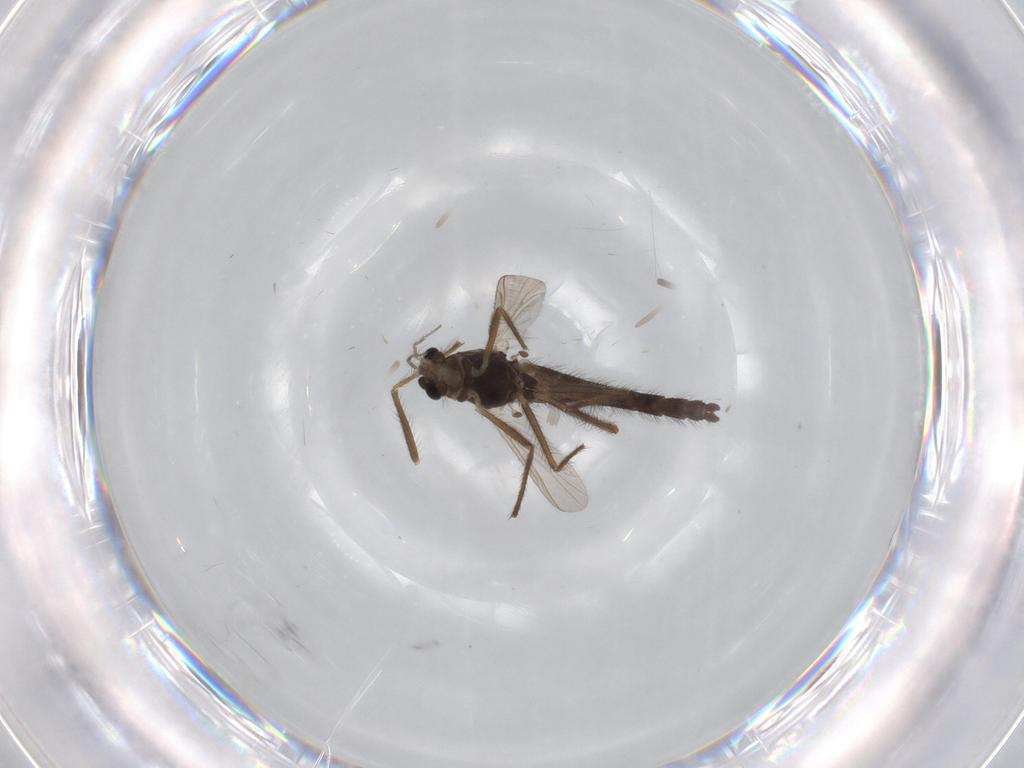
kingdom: Animalia
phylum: Arthropoda
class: Insecta
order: Diptera
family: Chironomidae
